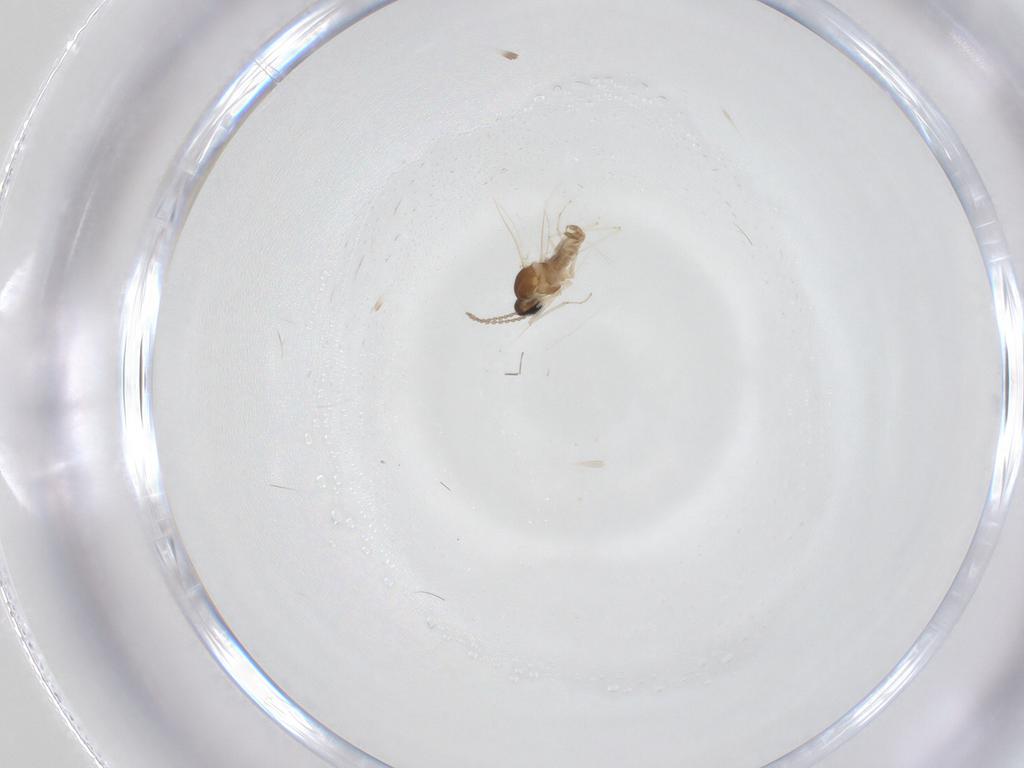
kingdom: Animalia
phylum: Arthropoda
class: Insecta
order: Diptera
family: Cecidomyiidae
